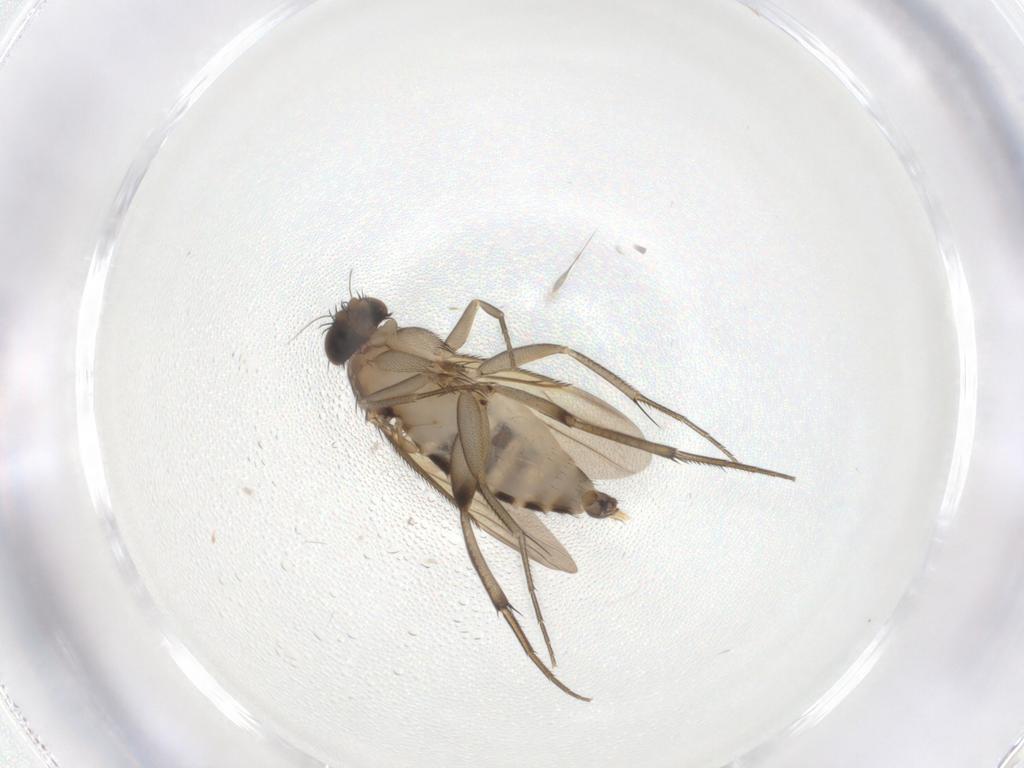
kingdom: Animalia
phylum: Arthropoda
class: Insecta
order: Diptera
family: Phoridae
